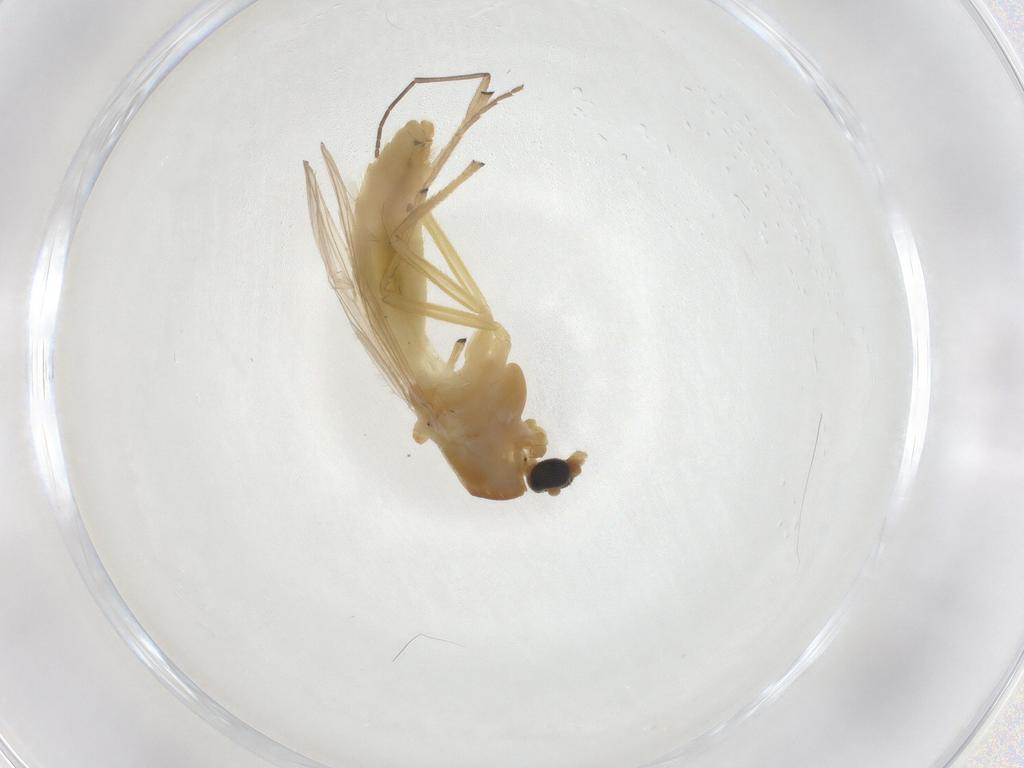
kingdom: Animalia
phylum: Arthropoda
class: Insecta
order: Diptera
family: Chironomidae
